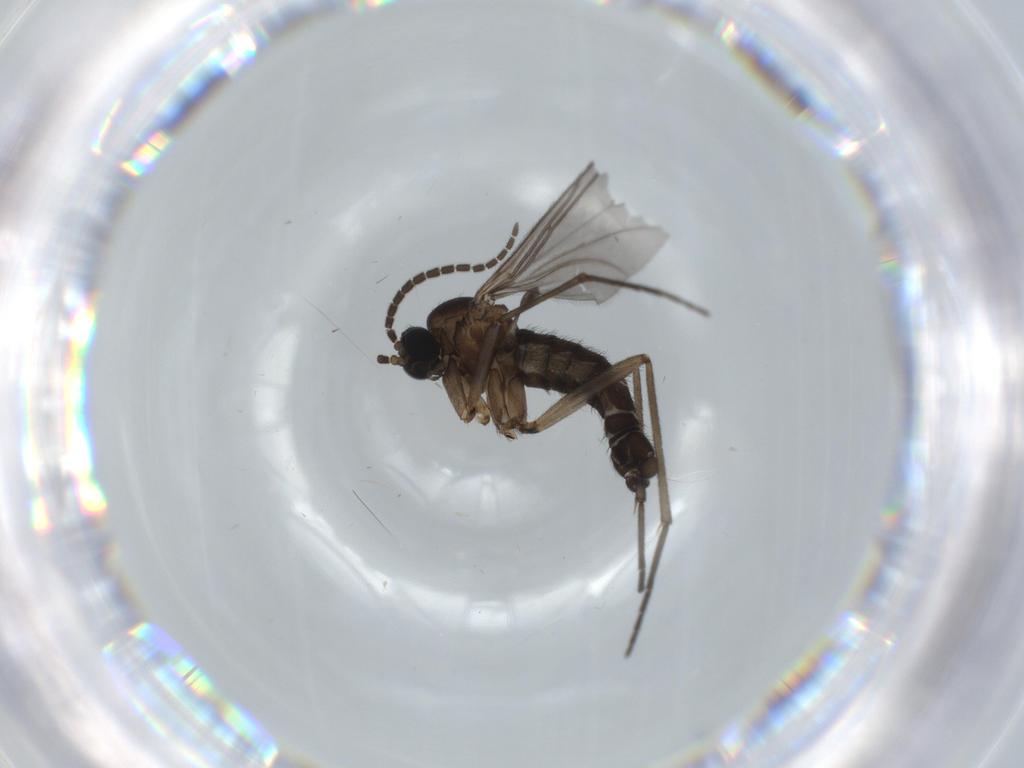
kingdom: Animalia
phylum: Arthropoda
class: Insecta
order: Diptera
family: Sciaridae
